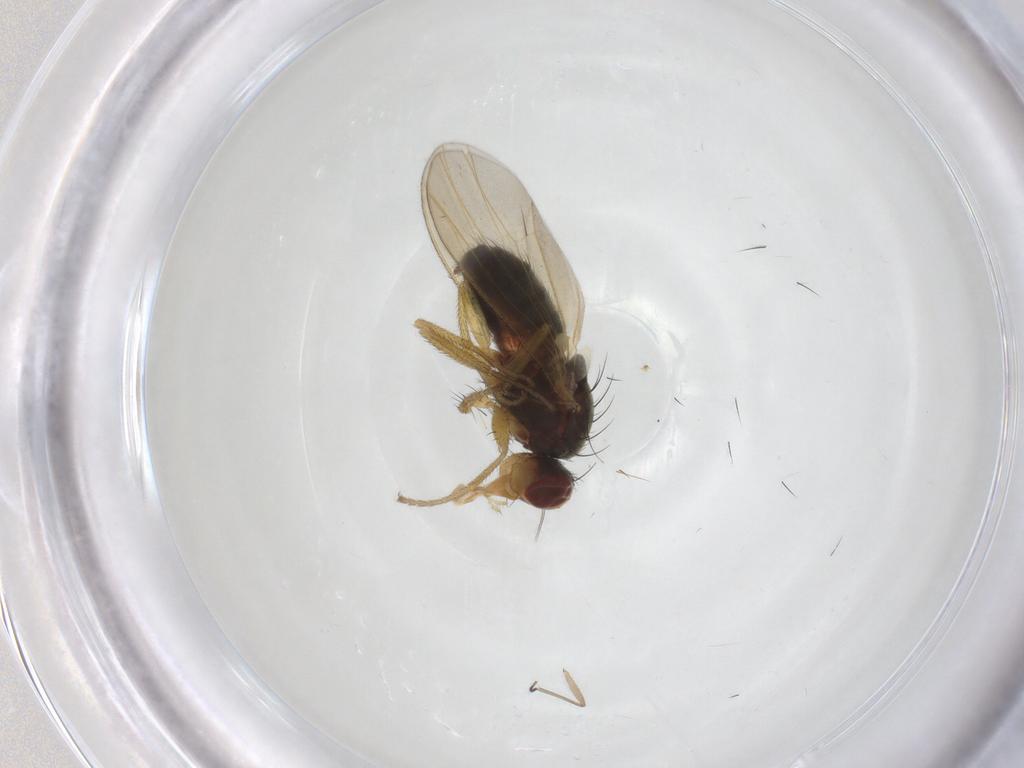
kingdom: Animalia
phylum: Arthropoda
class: Insecta
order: Diptera
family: Heleomyzidae
